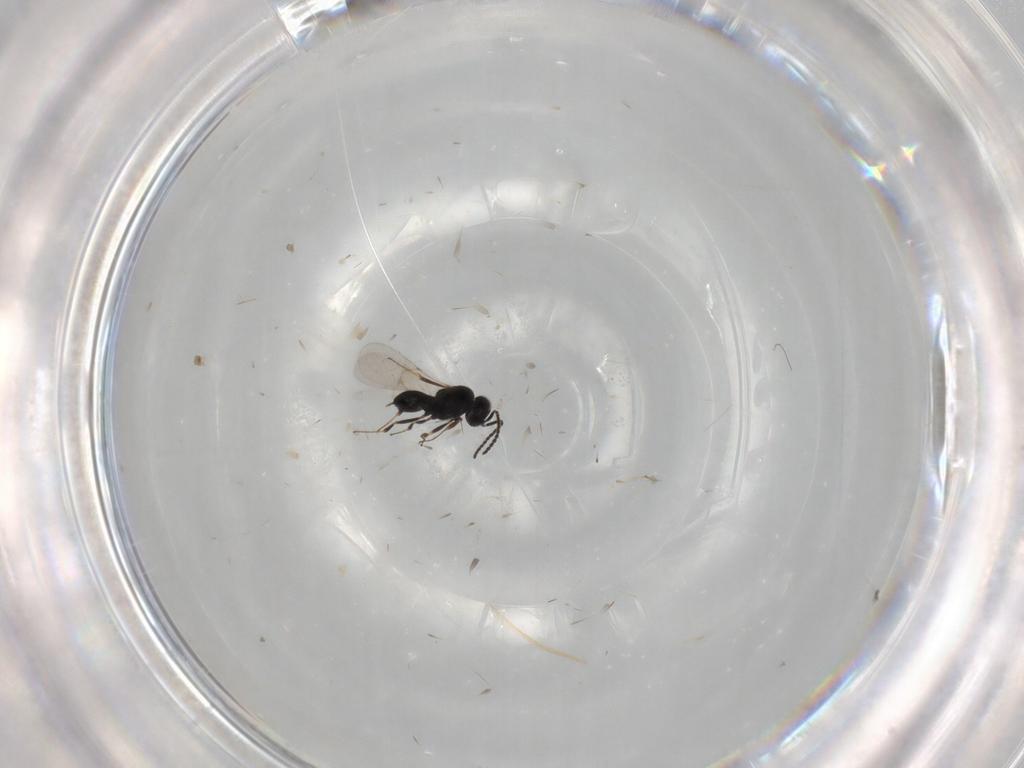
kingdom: Animalia
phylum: Arthropoda
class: Insecta
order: Hymenoptera
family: Scelionidae
